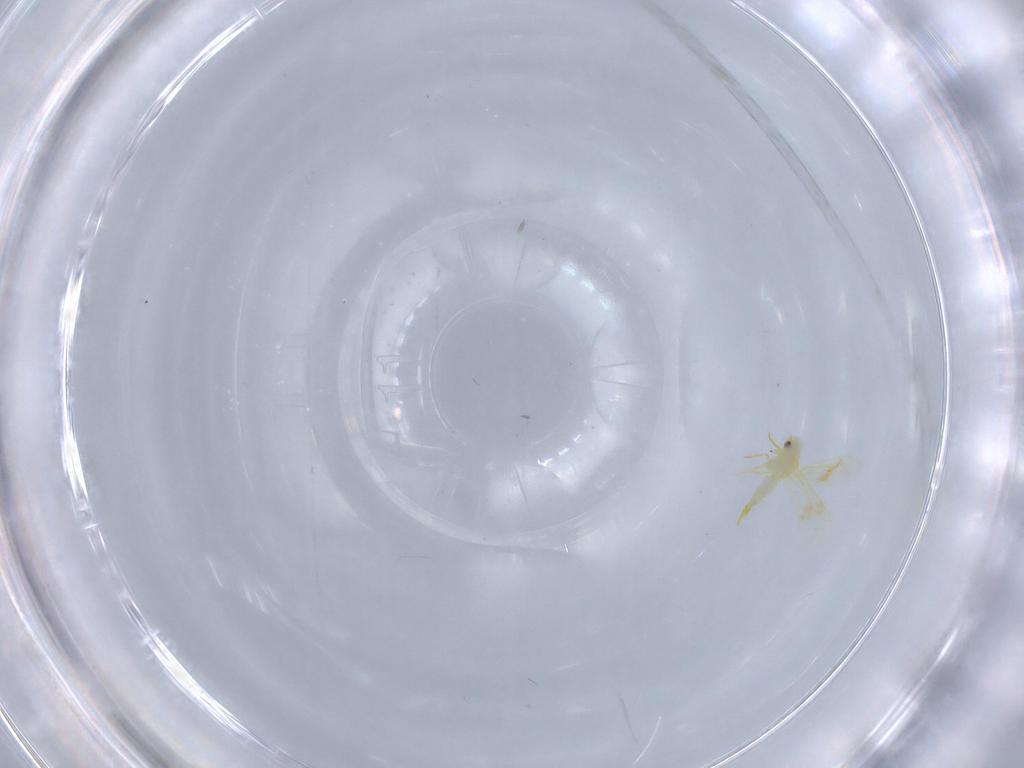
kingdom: Animalia
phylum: Arthropoda
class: Insecta
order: Hemiptera
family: Aleyrodidae
